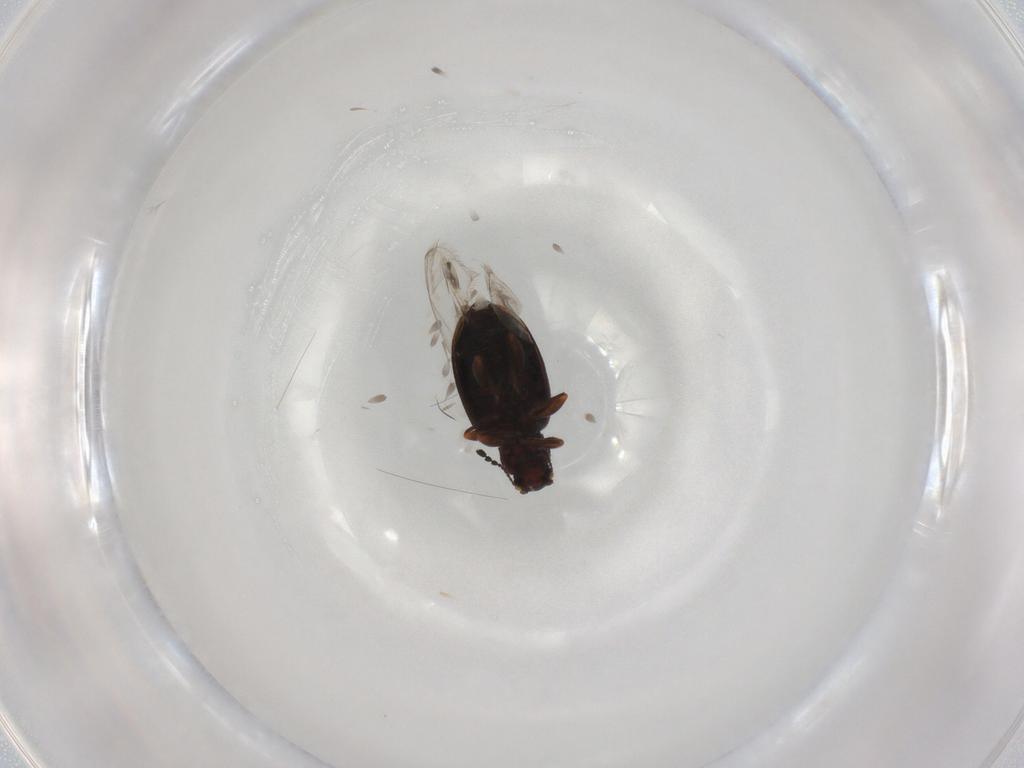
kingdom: Animalia
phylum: Arthropoda
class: Insecta
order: Coleoptera
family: Latridiidae
